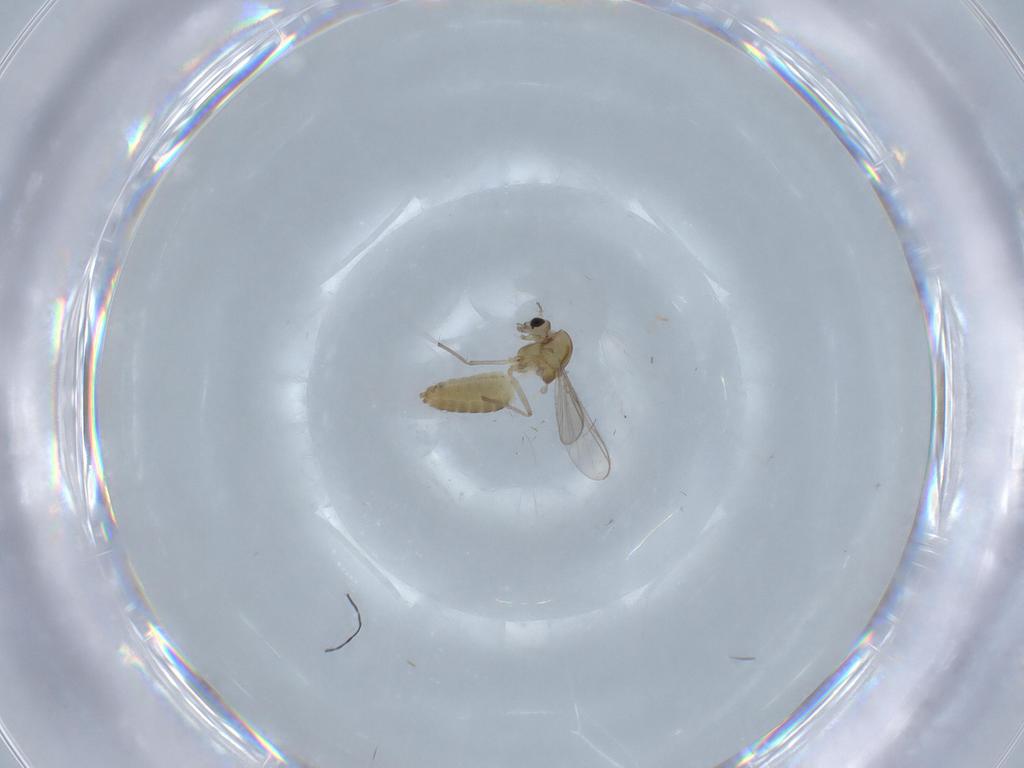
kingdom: Animalia
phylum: Arthropoda
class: Insecta
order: Diptera
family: Chironomidae
